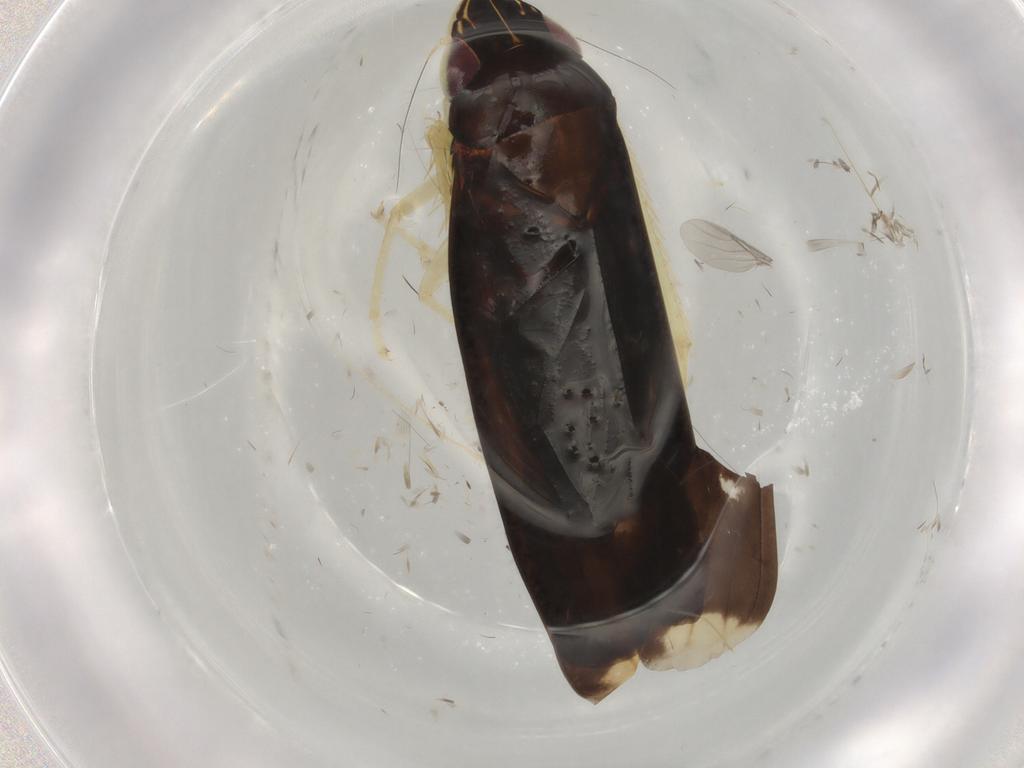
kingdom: Animalia
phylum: Arthropoda
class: Insecta
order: Hemiptera
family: Cicadellidae
